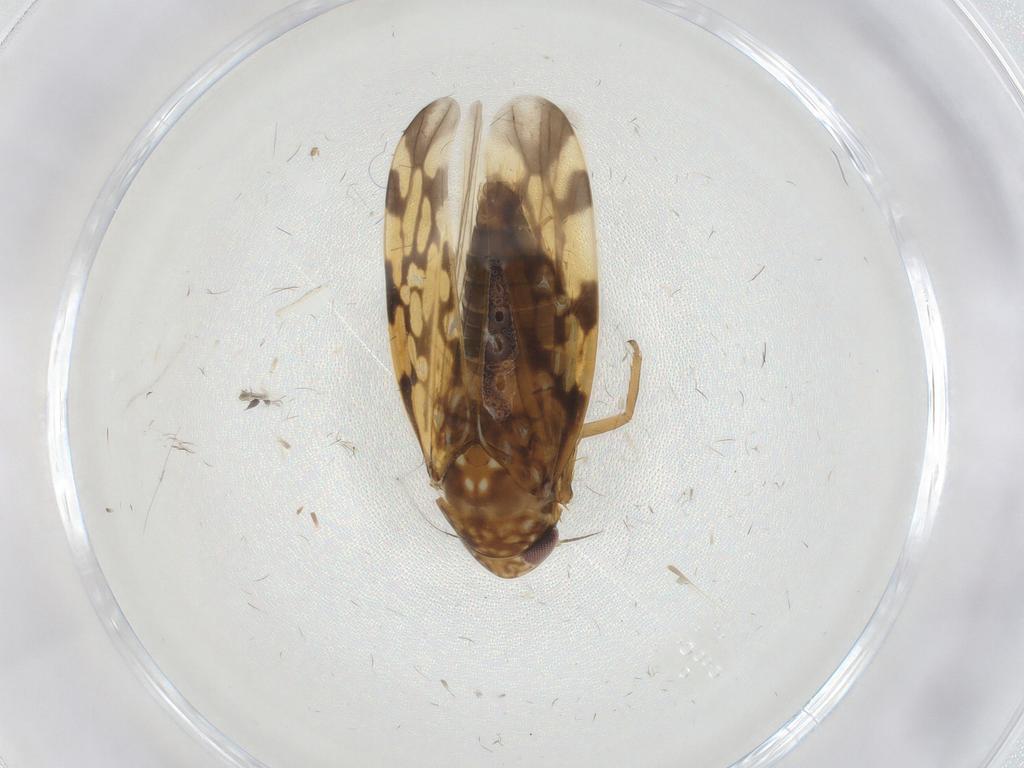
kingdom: Animalia
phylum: Arthropoda
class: Insecta
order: Hemiptera
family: Cicadellidae
